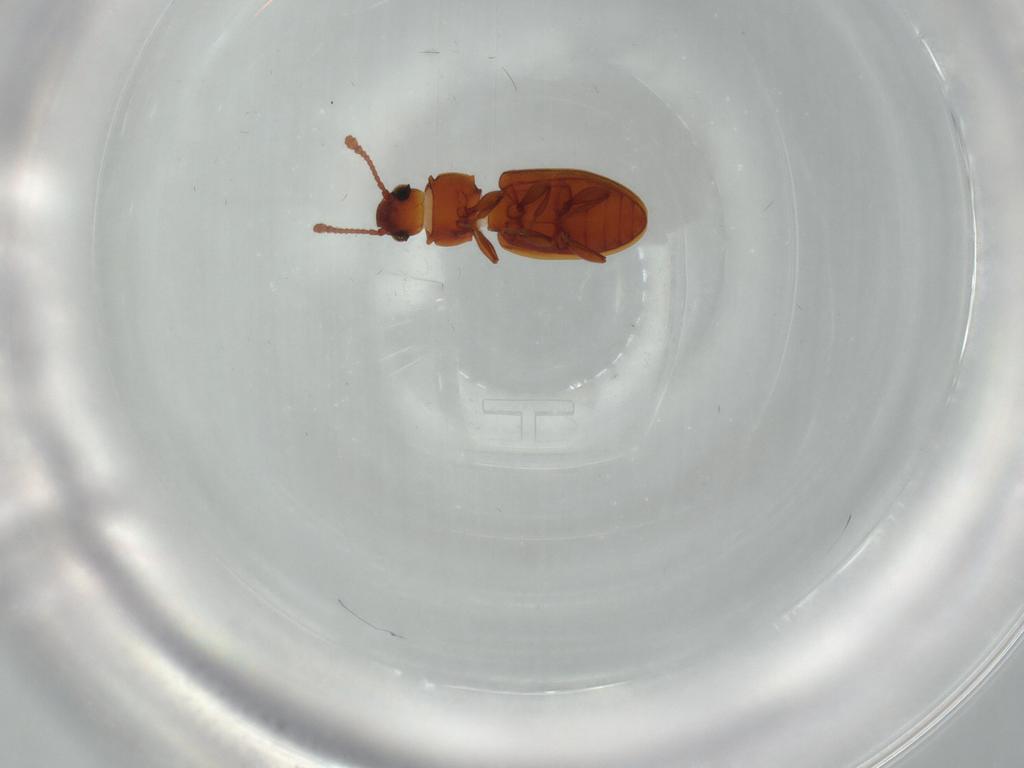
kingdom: Animalia
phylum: Arthropoda
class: Insecta
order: Coleoptera
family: Silvanidae
